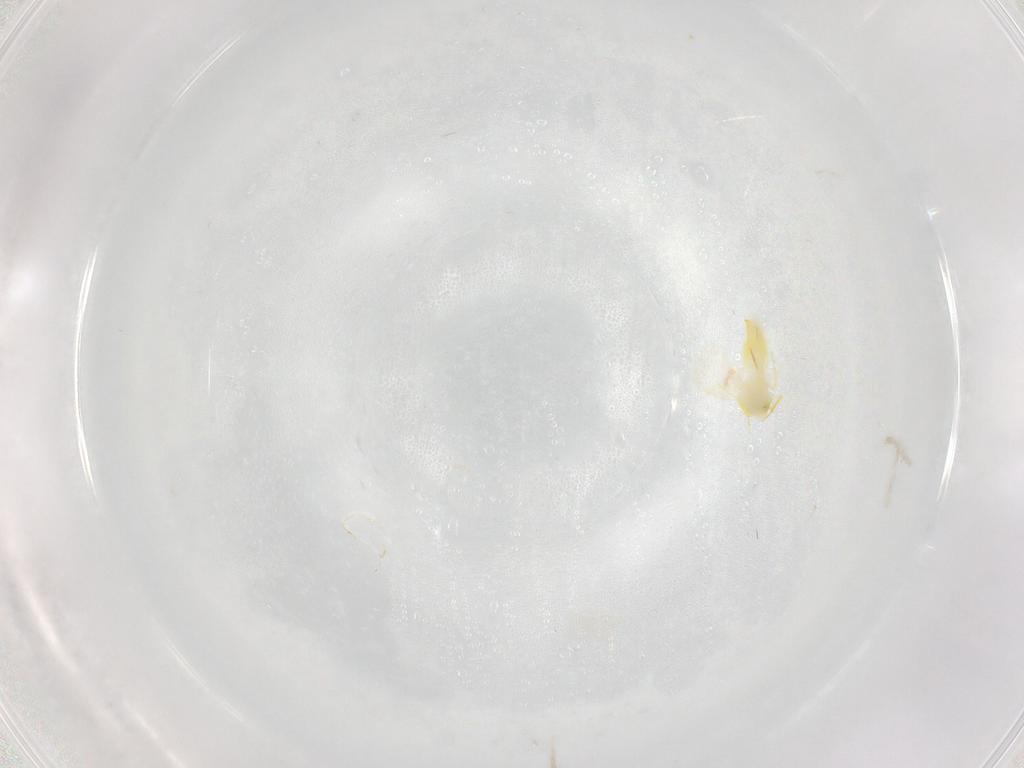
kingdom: Animalia
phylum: Arthropoda
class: Insecta
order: Hemiptera
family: Aleyrodidae
